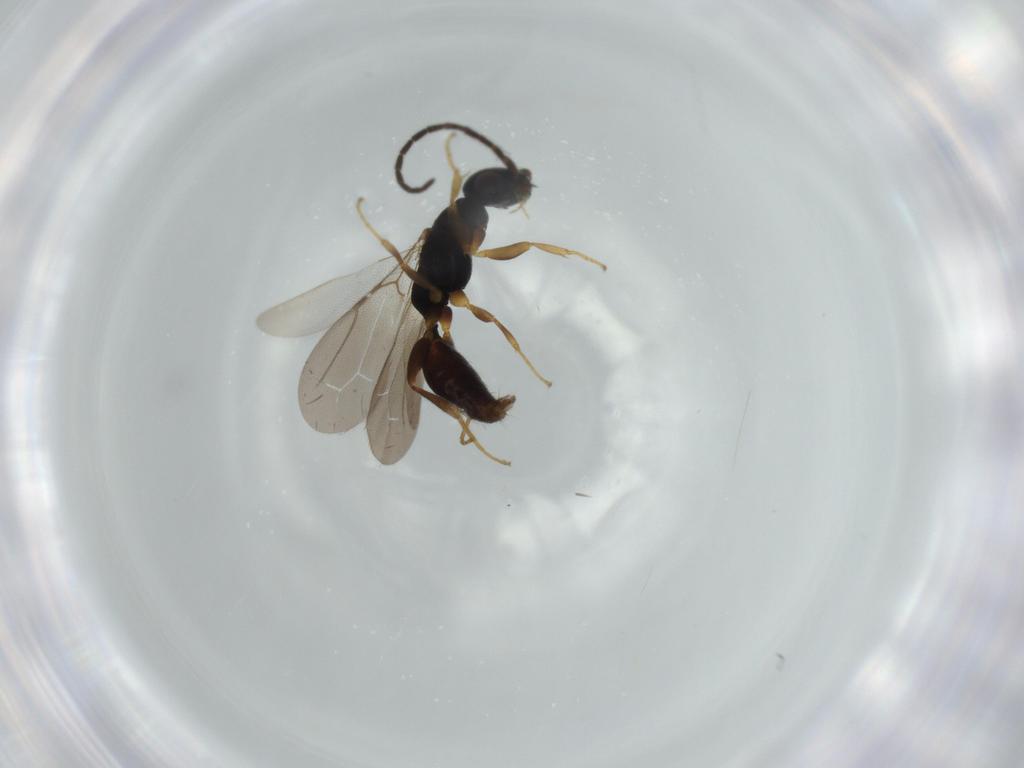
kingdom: Animalia
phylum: Arthropoda
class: Insecta
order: Hymenoptera
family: Bethylidae
